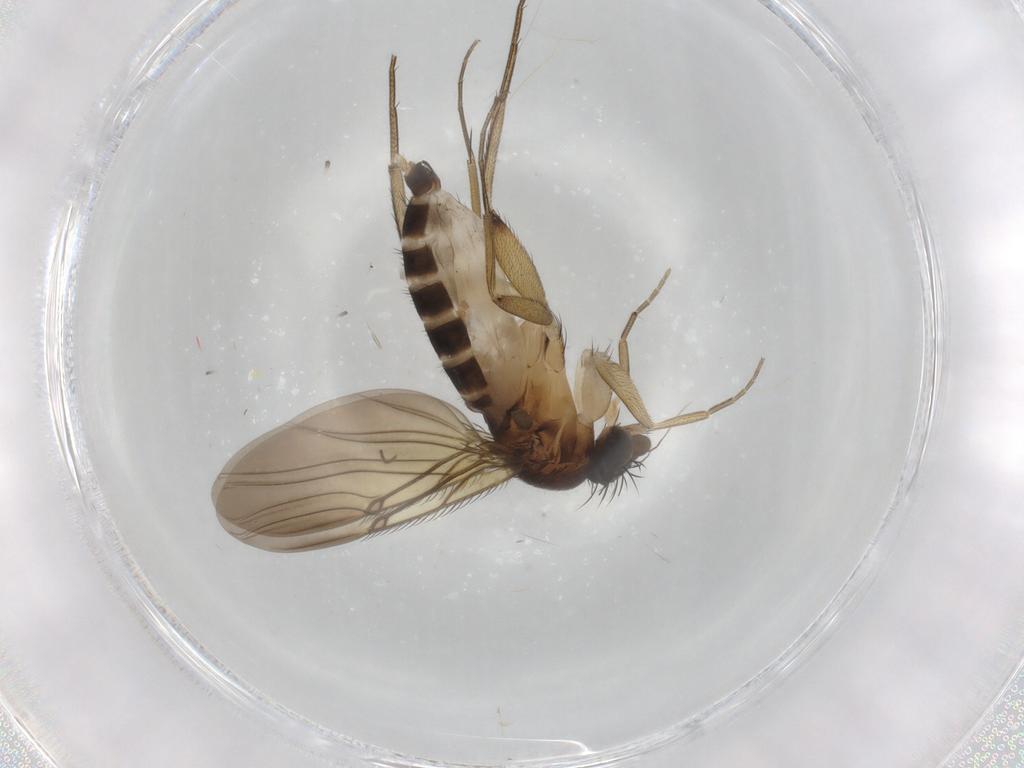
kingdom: Animalia
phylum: Arthropoda
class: Insecta
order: Diptera
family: Phoridae
